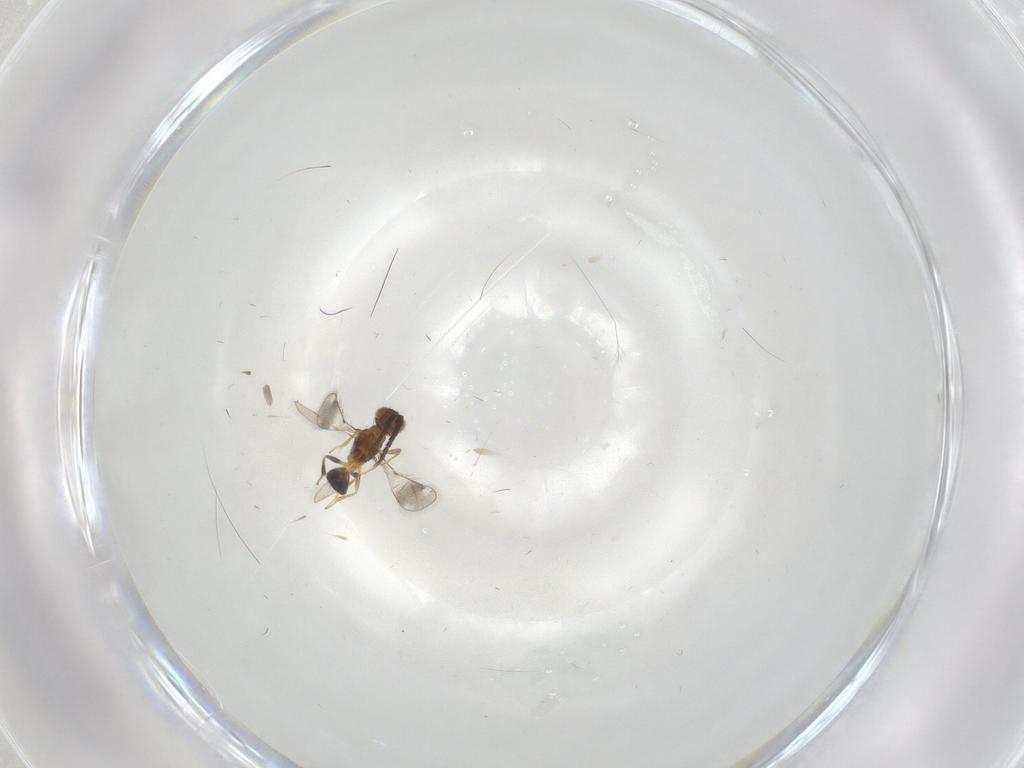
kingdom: Animalia
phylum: Arthropoda
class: Insecta
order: Hymenoptera
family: Pteromalidae
